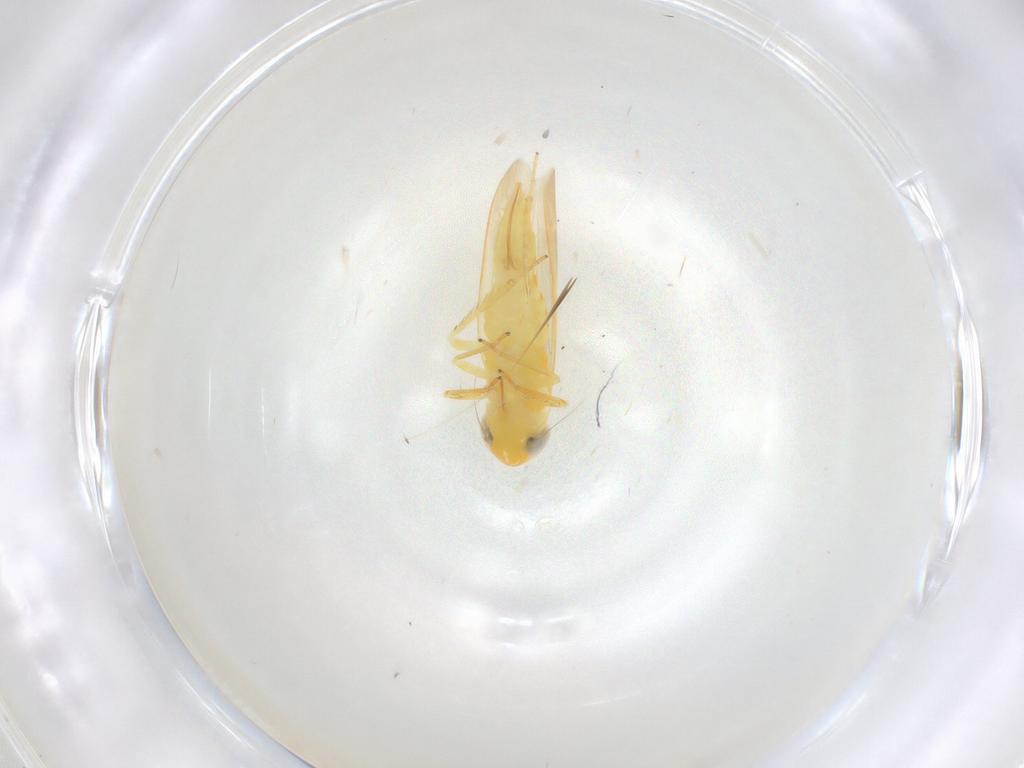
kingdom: Animalia
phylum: Arthropoda
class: Insecta
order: Hemiptera
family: Cicadellidae
